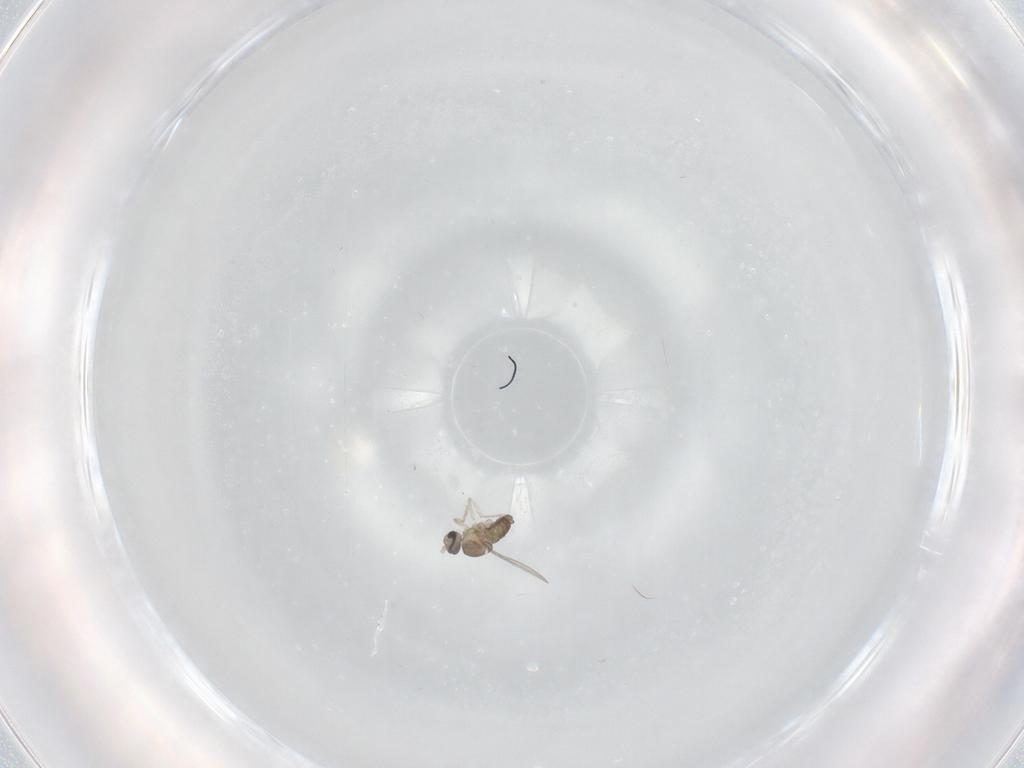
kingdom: Animalia
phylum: Arthropoda
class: Insecta
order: Diptera
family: Cecidomyiidae
